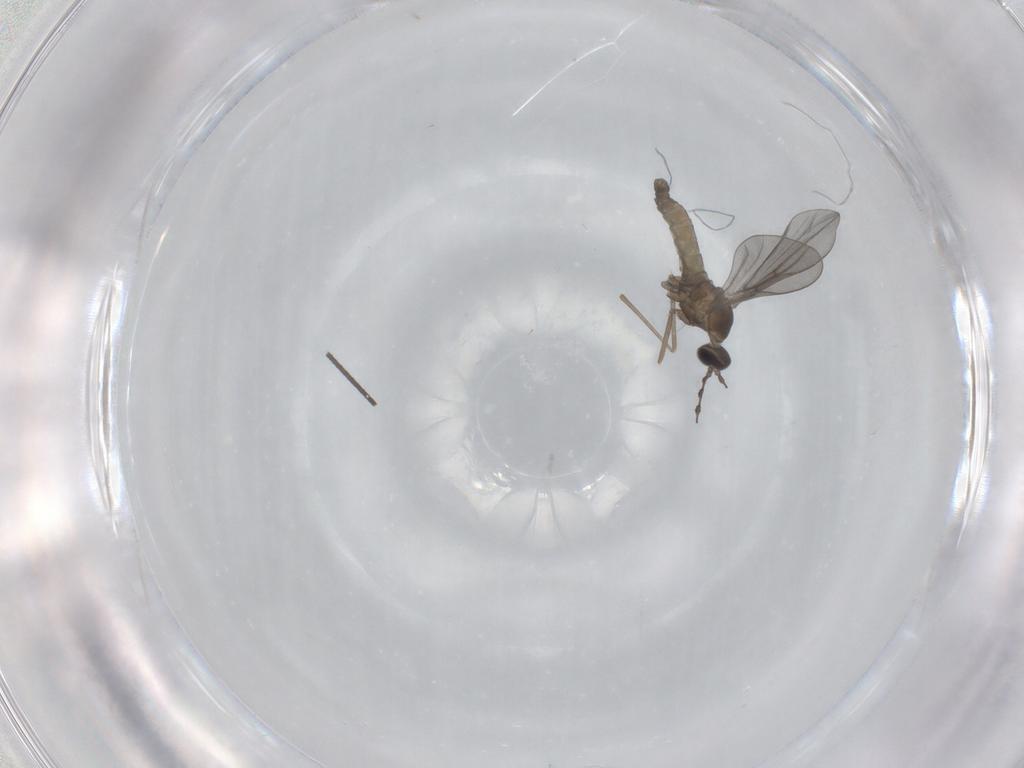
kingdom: Animalia
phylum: Arthropoda
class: Insecta
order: Diptera
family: Cecidomyiidae
